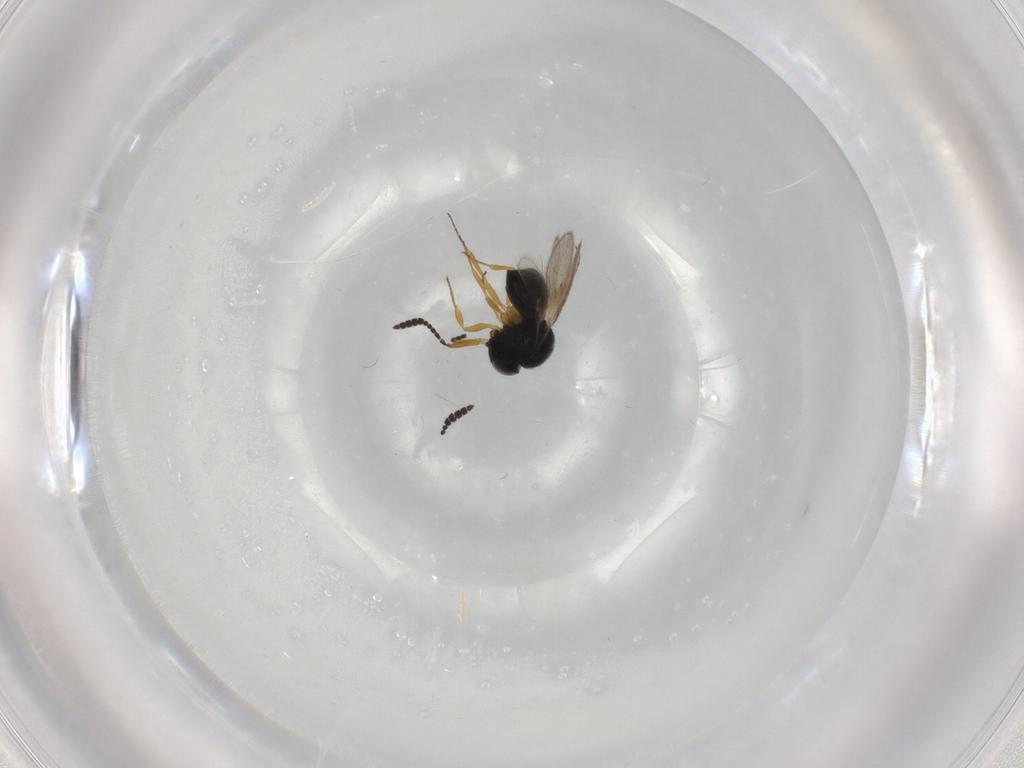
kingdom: Animalia
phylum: Arthropoda
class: Insecta
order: Hymenoptera
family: Scelionidae
